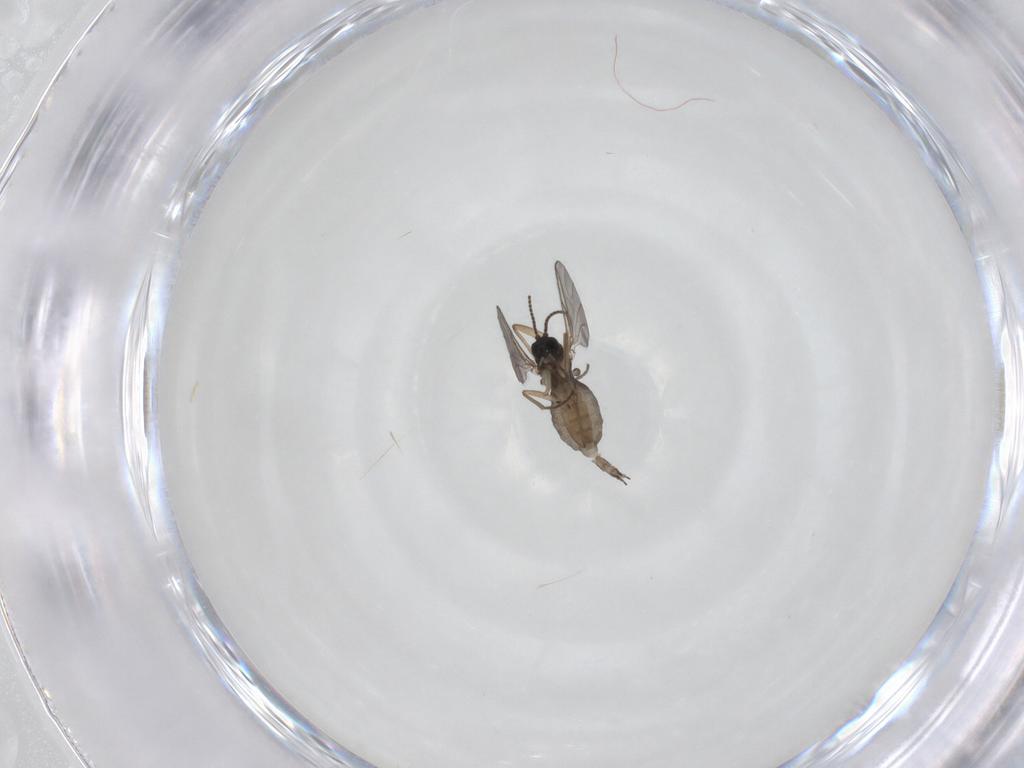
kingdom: Animalia
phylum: Arthropoda
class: Insecta
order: Diptera
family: Sciaridae
